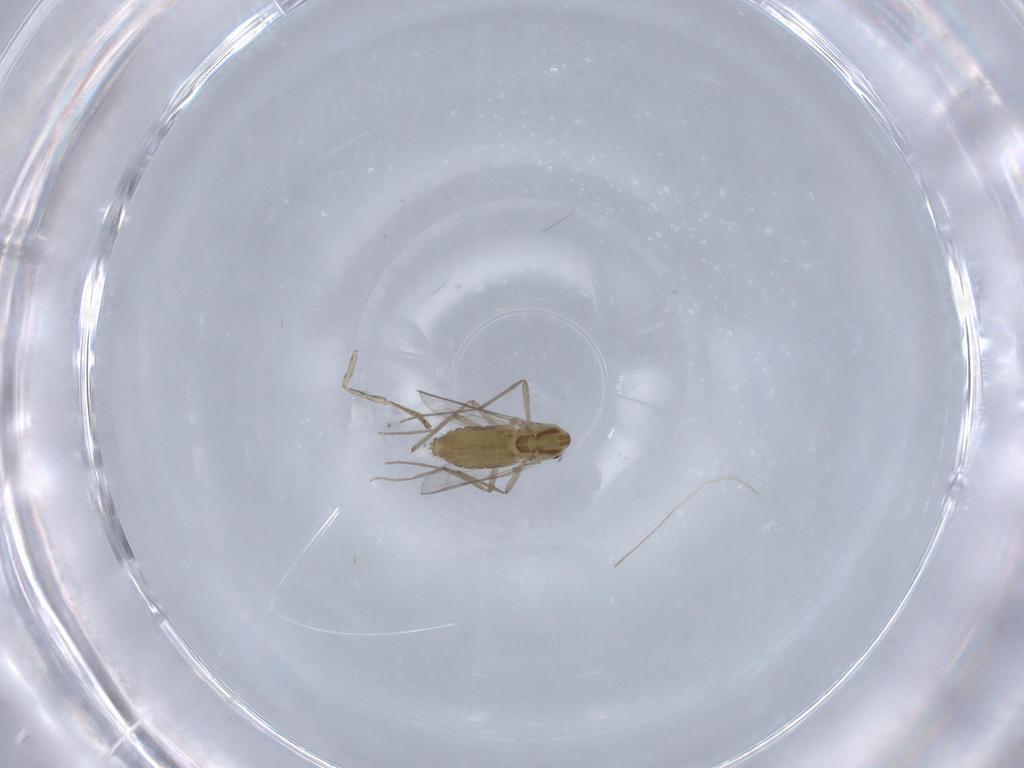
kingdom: Animalia
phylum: Arthropoda
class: Insecta
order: Diptera
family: Chironomidae
